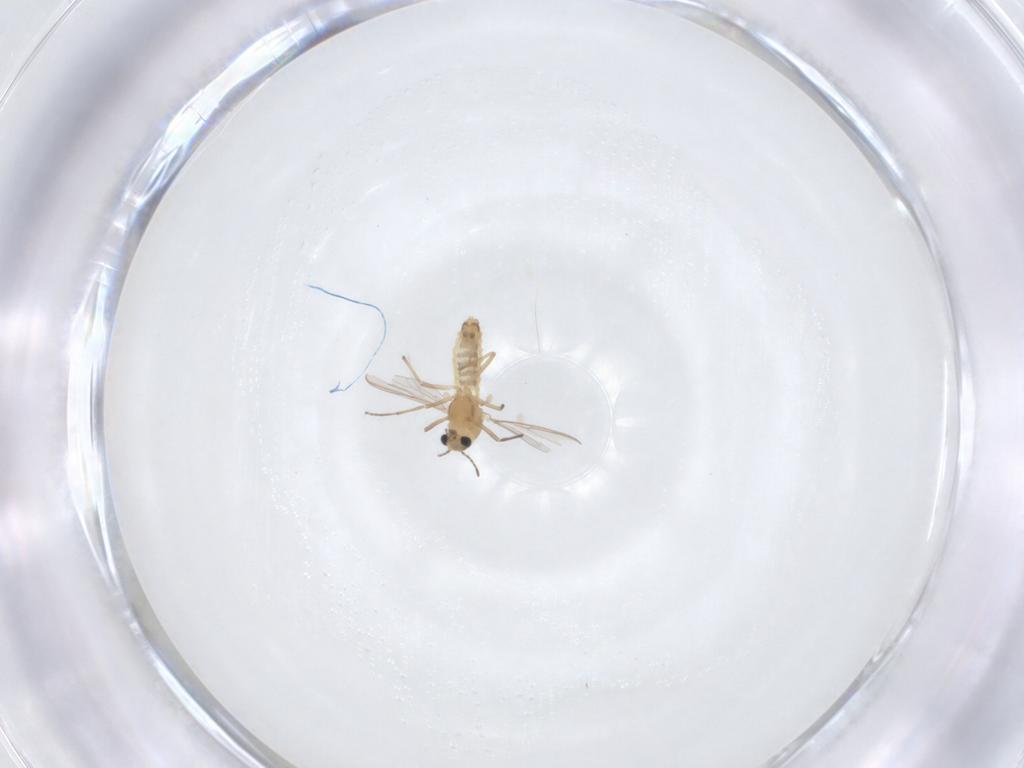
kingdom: Animalia
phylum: Arthropoda
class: Insecta
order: Diptera
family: Chironomidae
